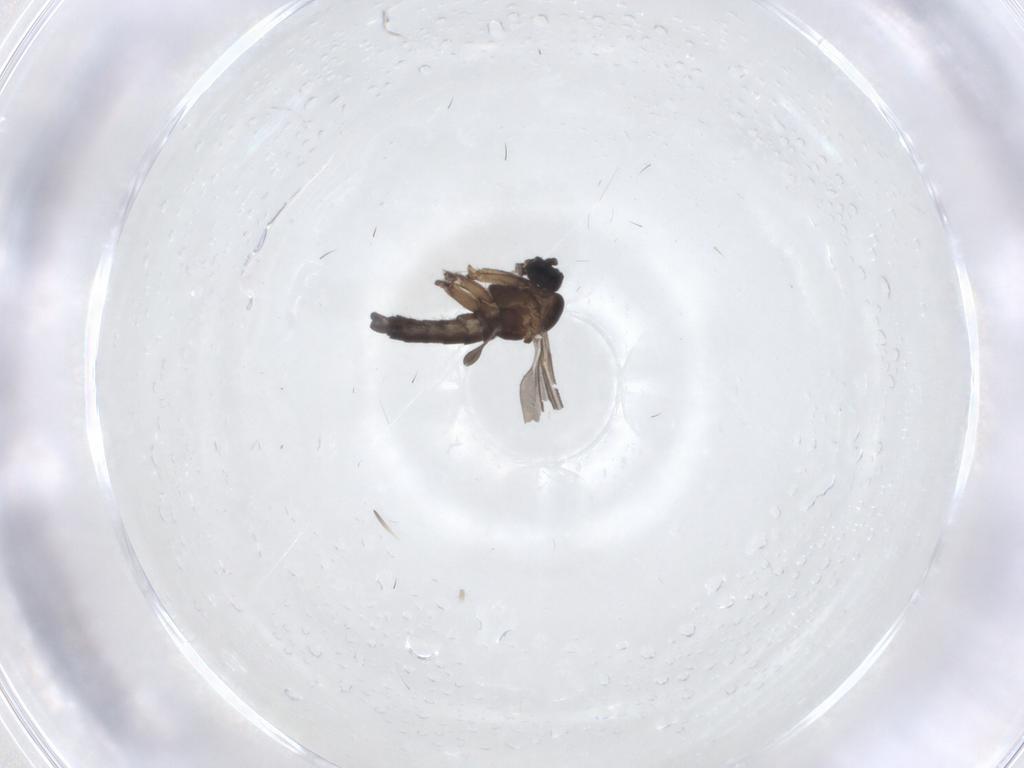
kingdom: Animalia
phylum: Arthropoda
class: Insecta
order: Diptera
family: Sciaridae
